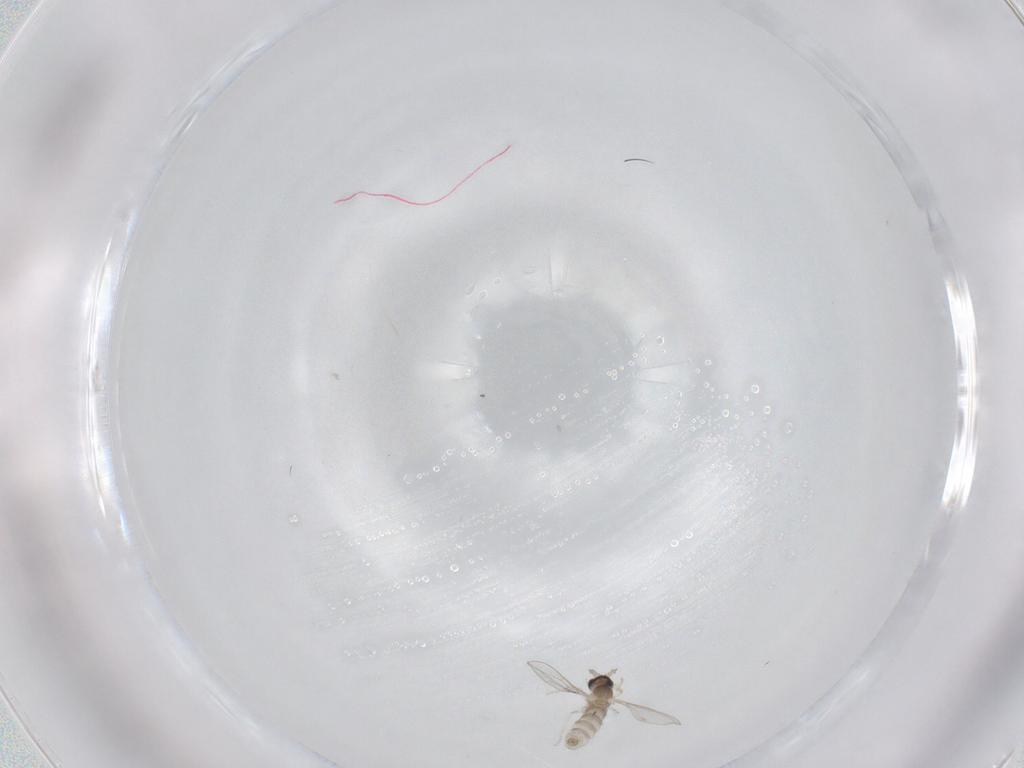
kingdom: Animalia
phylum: Arthropoda
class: Insecta
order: Diptera
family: Cecidomyiidae
